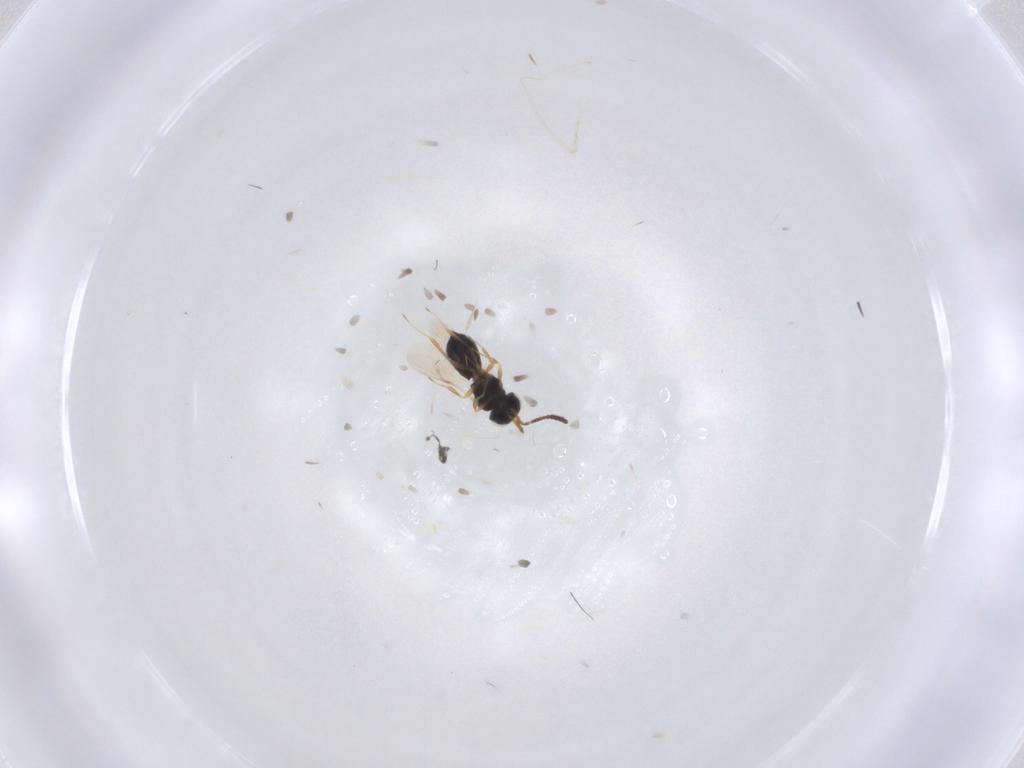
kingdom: Animalia
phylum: Arthropoda
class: Insecta
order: Hymenoptera
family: Scelionidae
